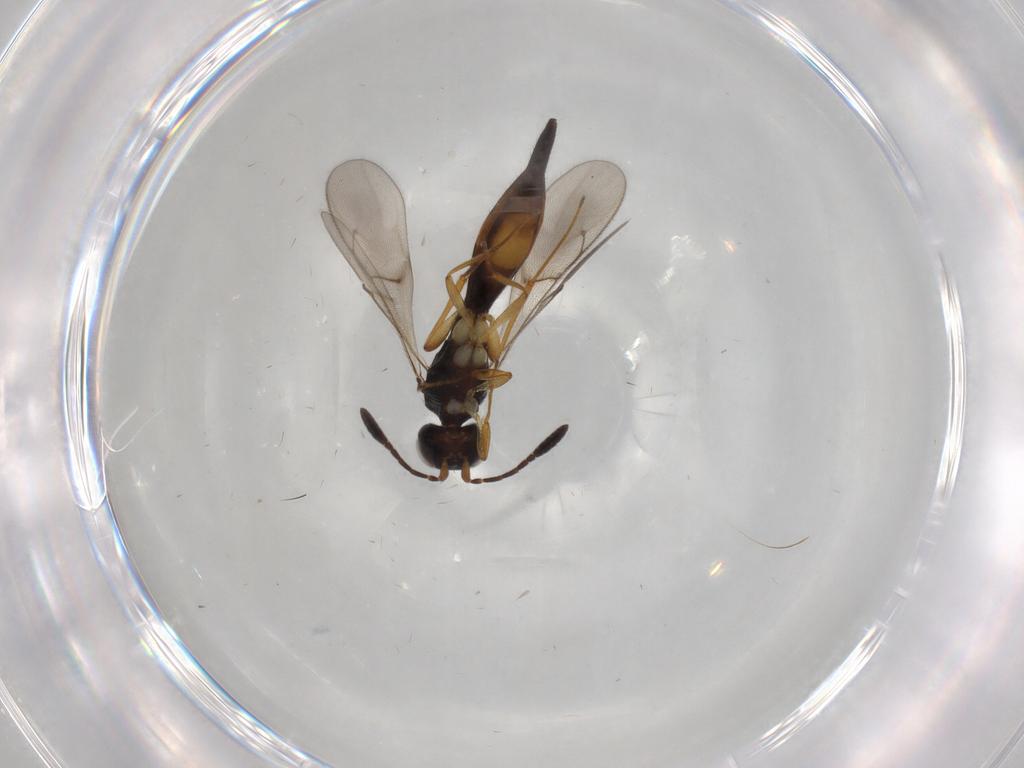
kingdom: Animalia
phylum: Arthropoda
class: Insecta
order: Hymenoptera
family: Scelionidae
